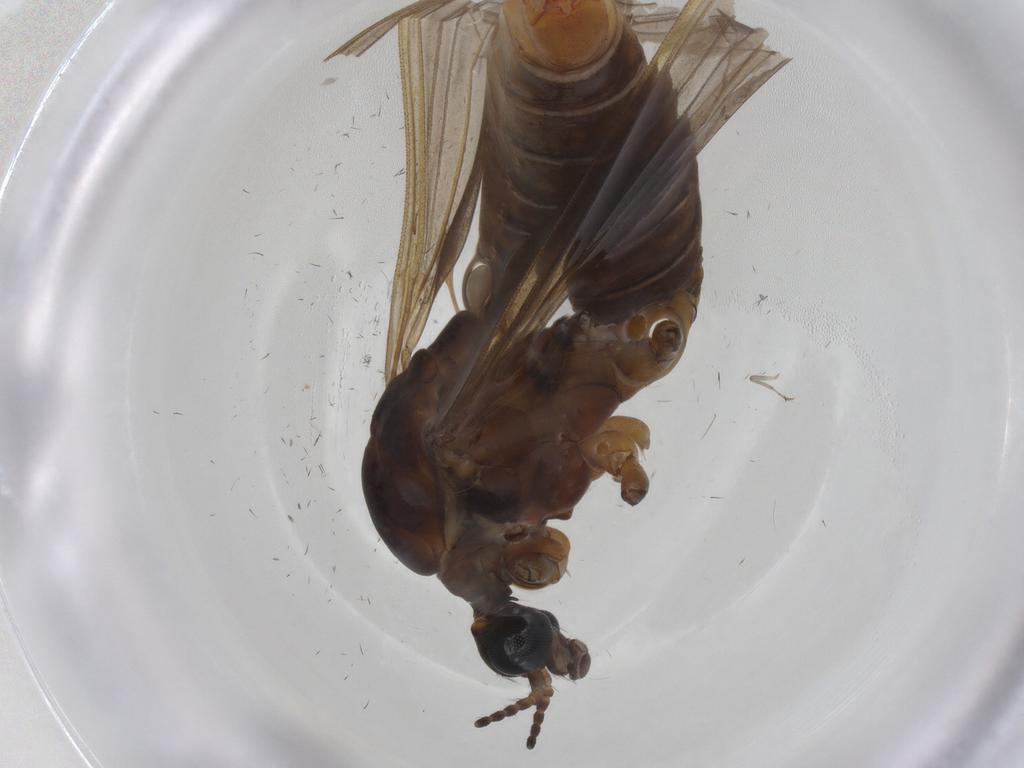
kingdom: Animalia
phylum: Arthropoda
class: Insecta
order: Diptera
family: Limoniidae
